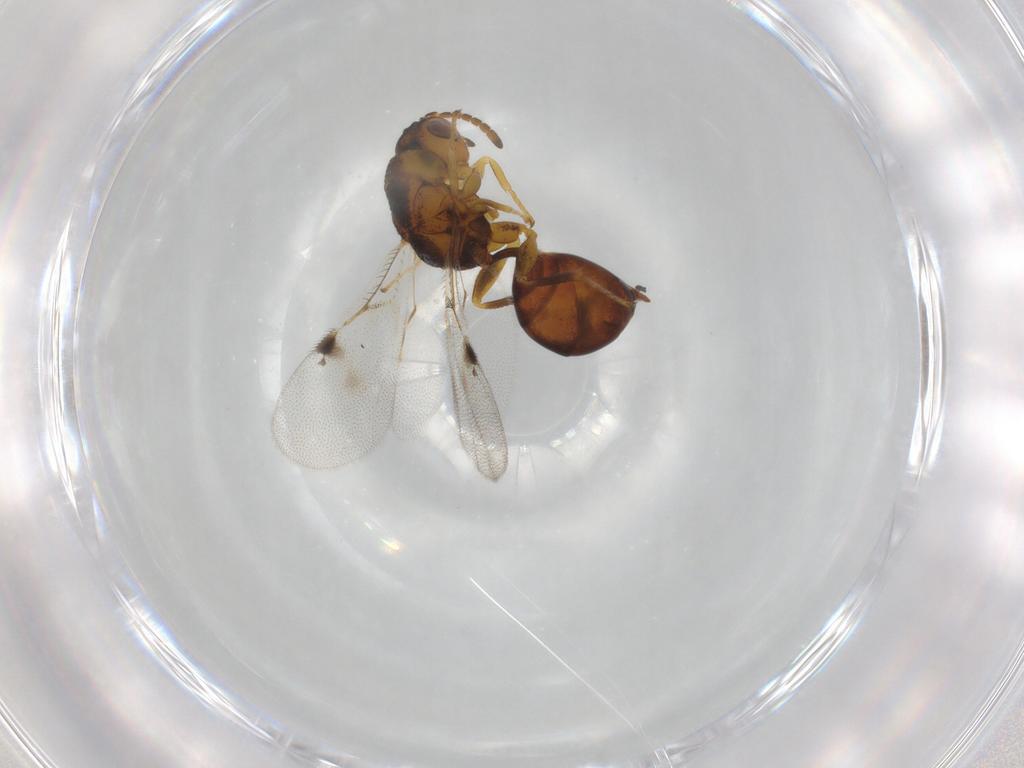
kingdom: Animalia
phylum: Arthropoda
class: Insecta
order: Hymenoptera
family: Eurytomidae
